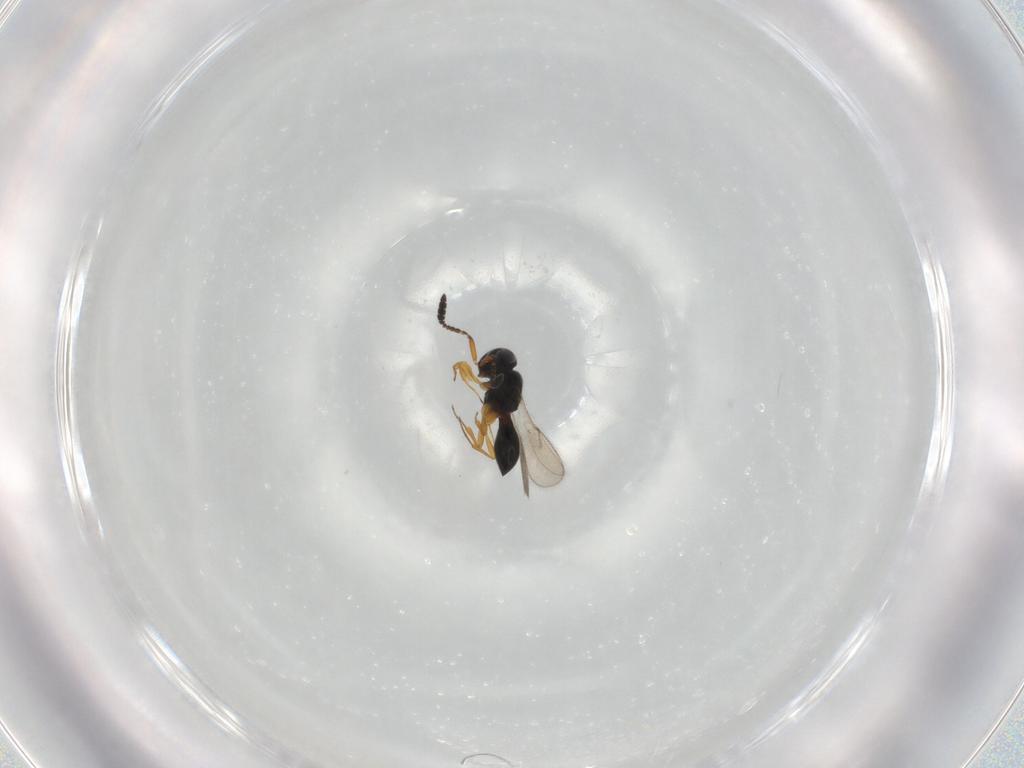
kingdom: Animalia
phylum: Arthropoda
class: Insecta
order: Hymenoptera
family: Scelionidae
